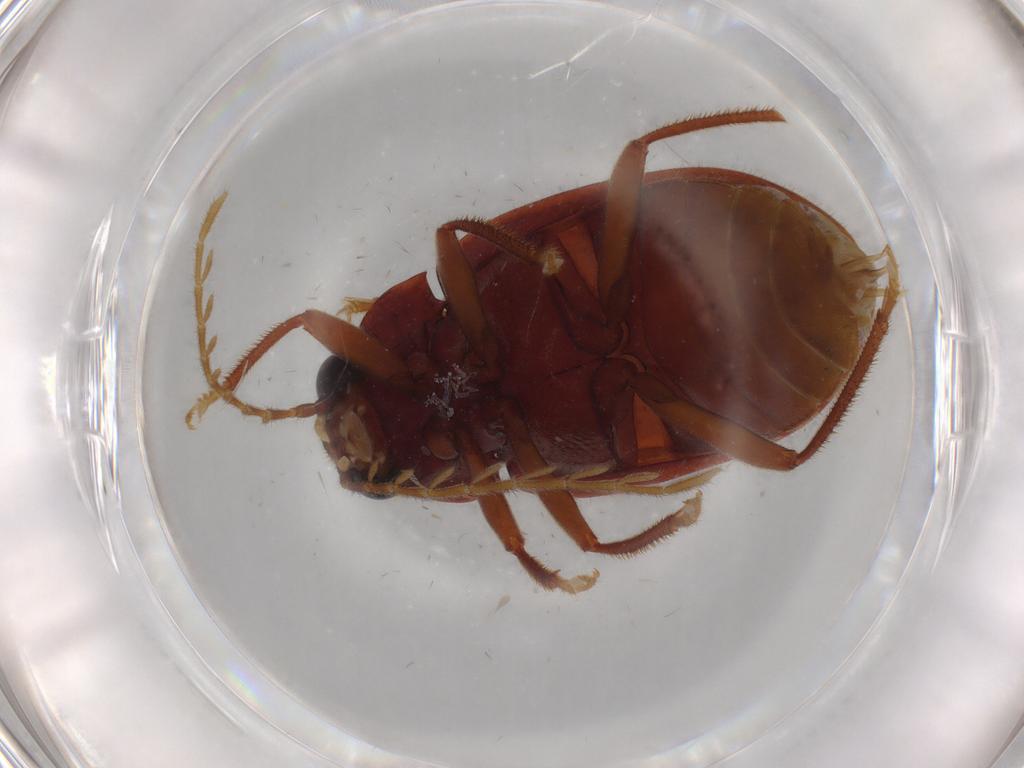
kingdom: Animalia
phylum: Arthropoda
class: Insecta
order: Coleoptera
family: Ptilodactylidae
